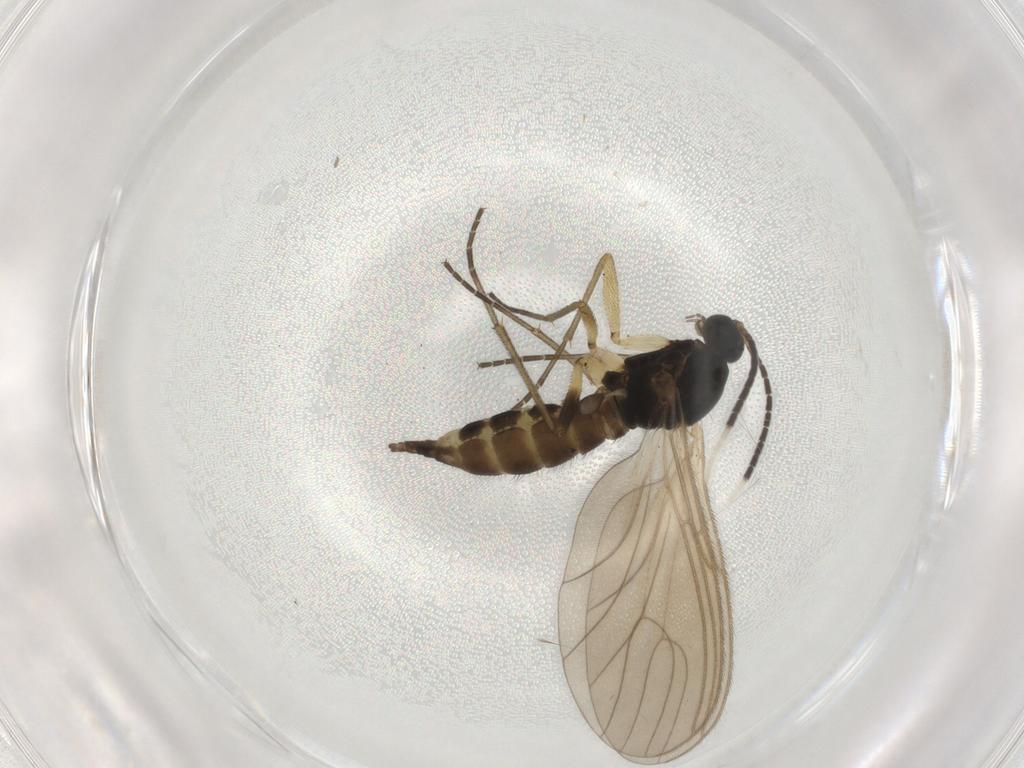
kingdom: Animalia
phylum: Arthropoda
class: Insecta
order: Diptera
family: Sciaridae
